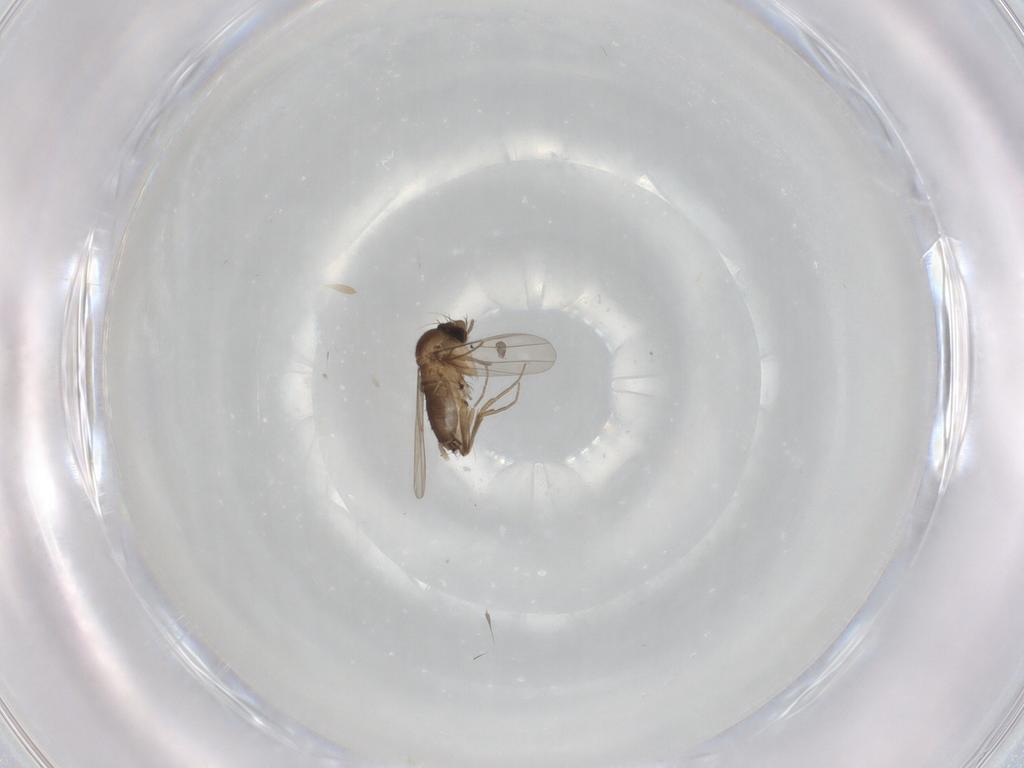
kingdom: Animalia
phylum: Arthropoda
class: Insecta
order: Diptera
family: Phoridae
